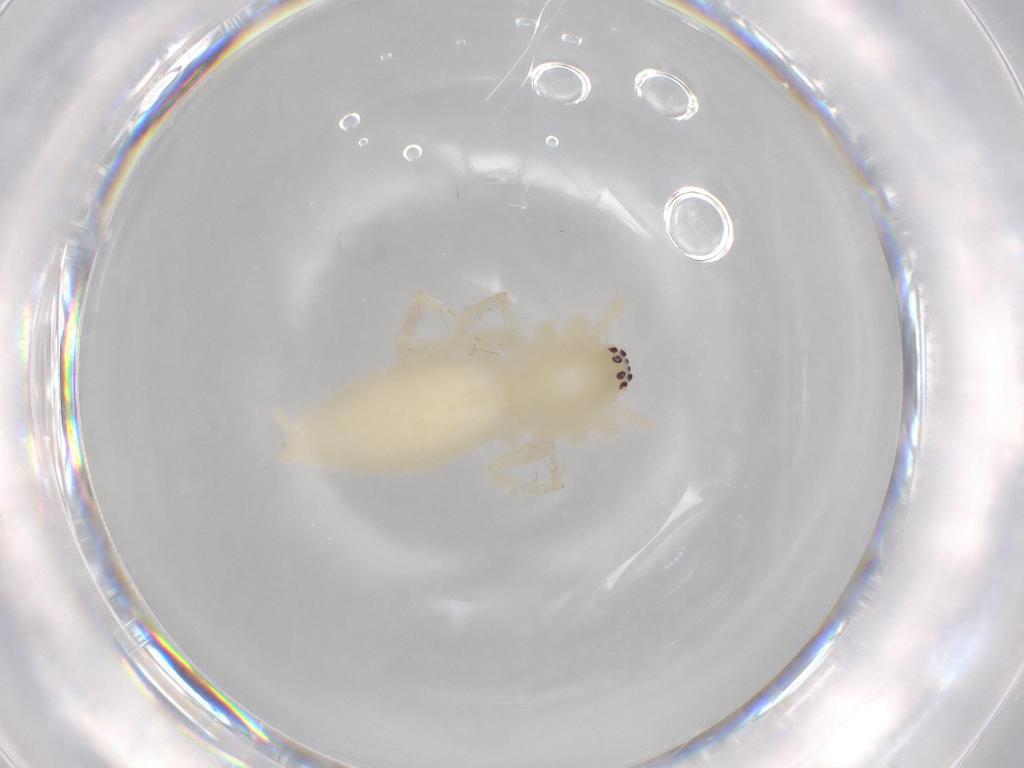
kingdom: Animalia
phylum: Arthropoda
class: Arachnida
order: Araneae
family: Anyphaenidae
